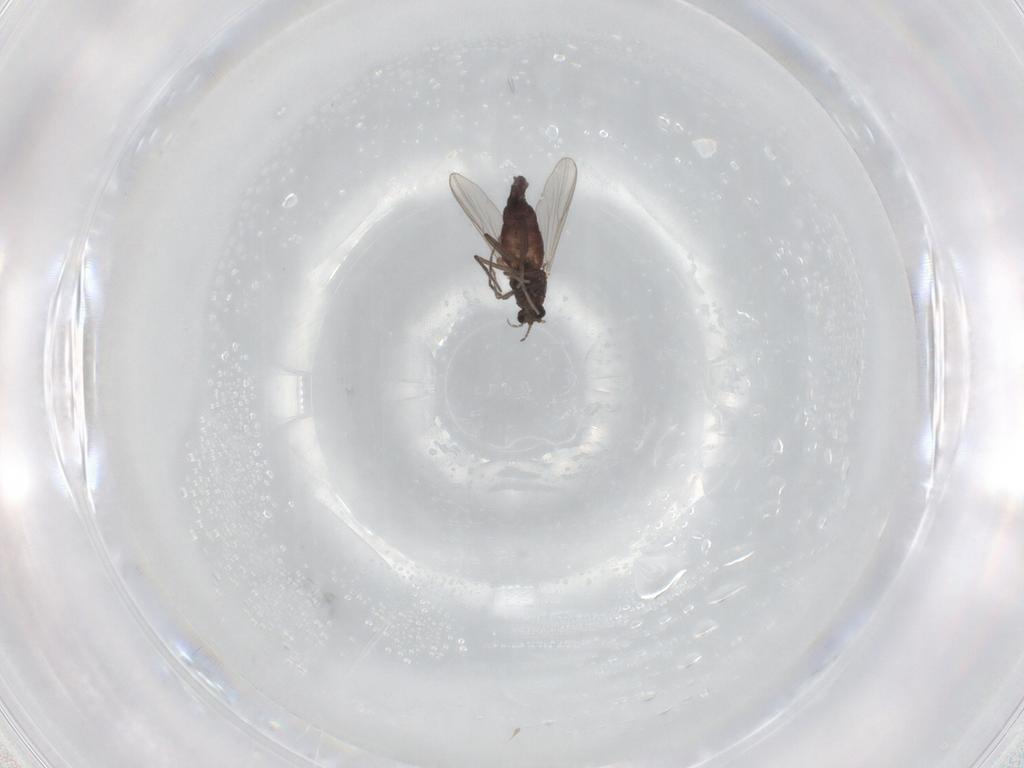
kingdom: Animalia
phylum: Arthropoda
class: Insecta
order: Diptera
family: Chironomidae
